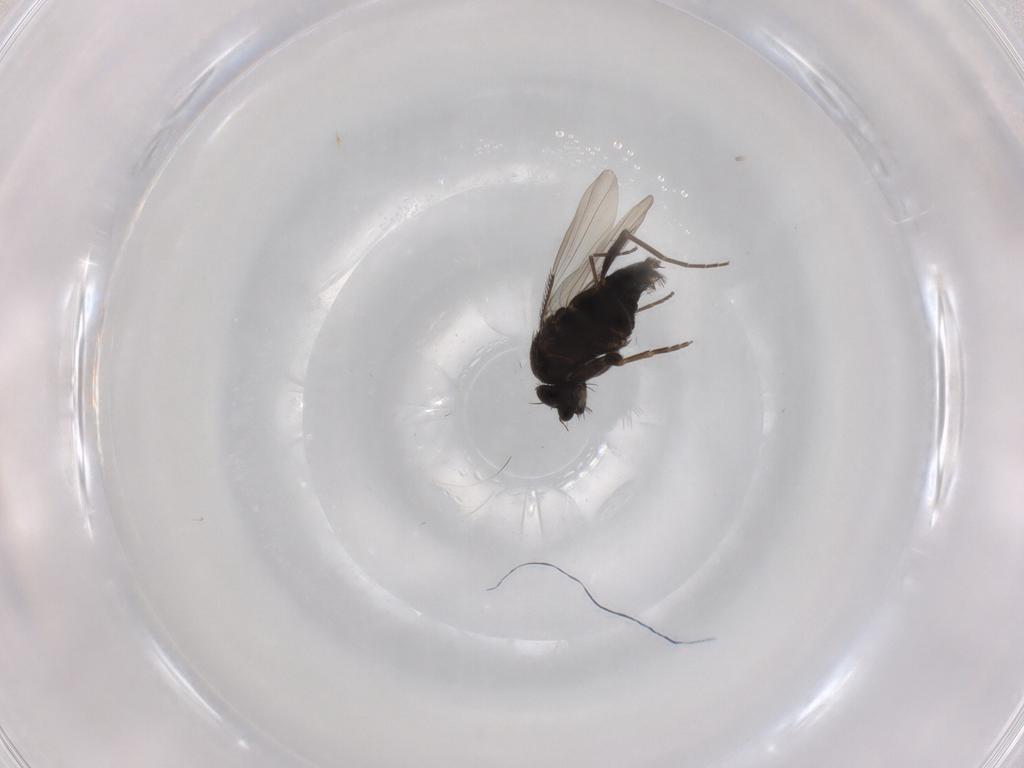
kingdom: Animalia
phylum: Arthropoda
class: Insecta
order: Diptera
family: Phoridae
